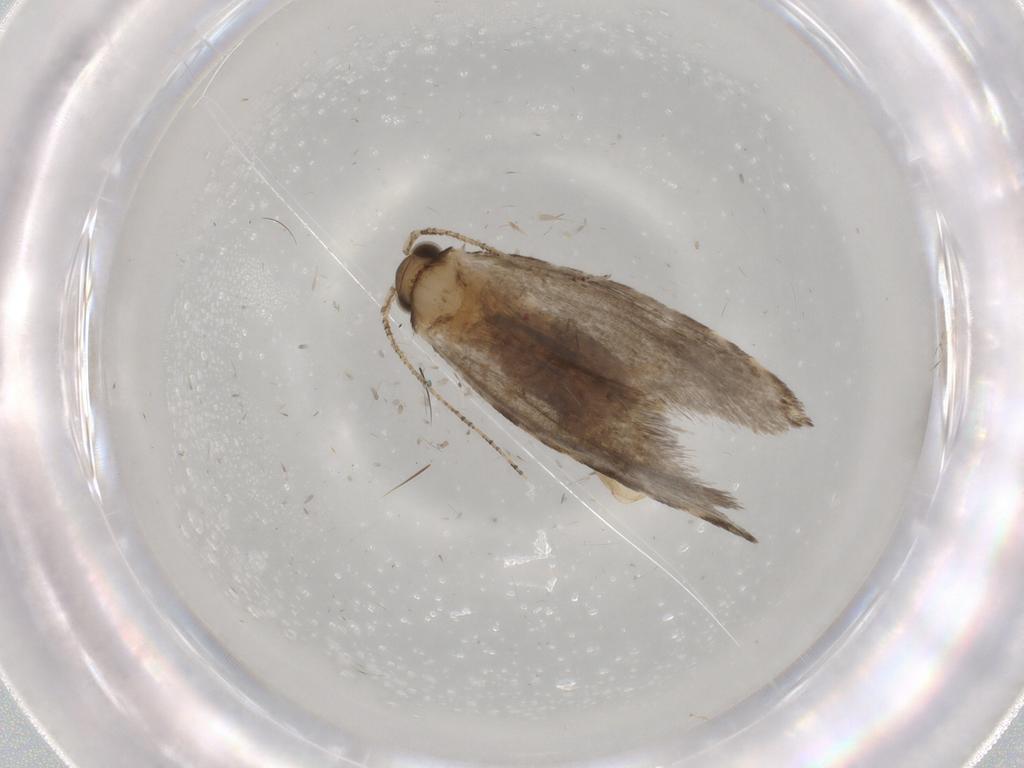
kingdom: Animalia
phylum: Arthropoda
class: Insecta
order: Lepidoptera
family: Tineidae
